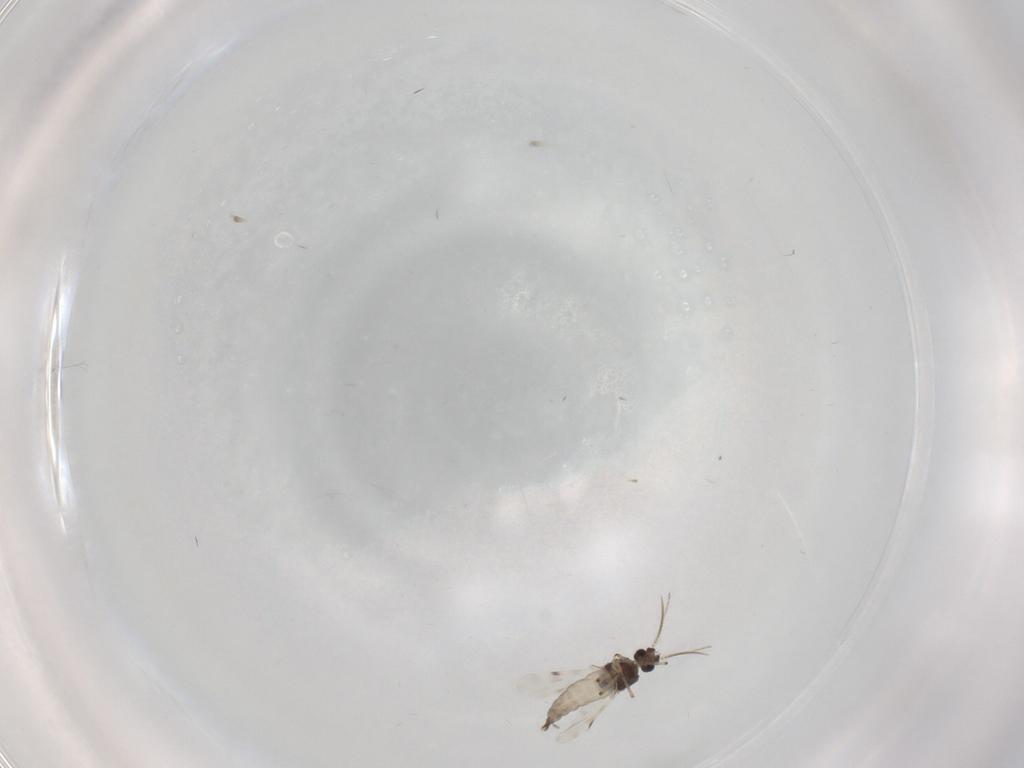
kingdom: Animalia
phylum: Arthropoda
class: Insecta
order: Diptera
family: Cecidomyiidae
